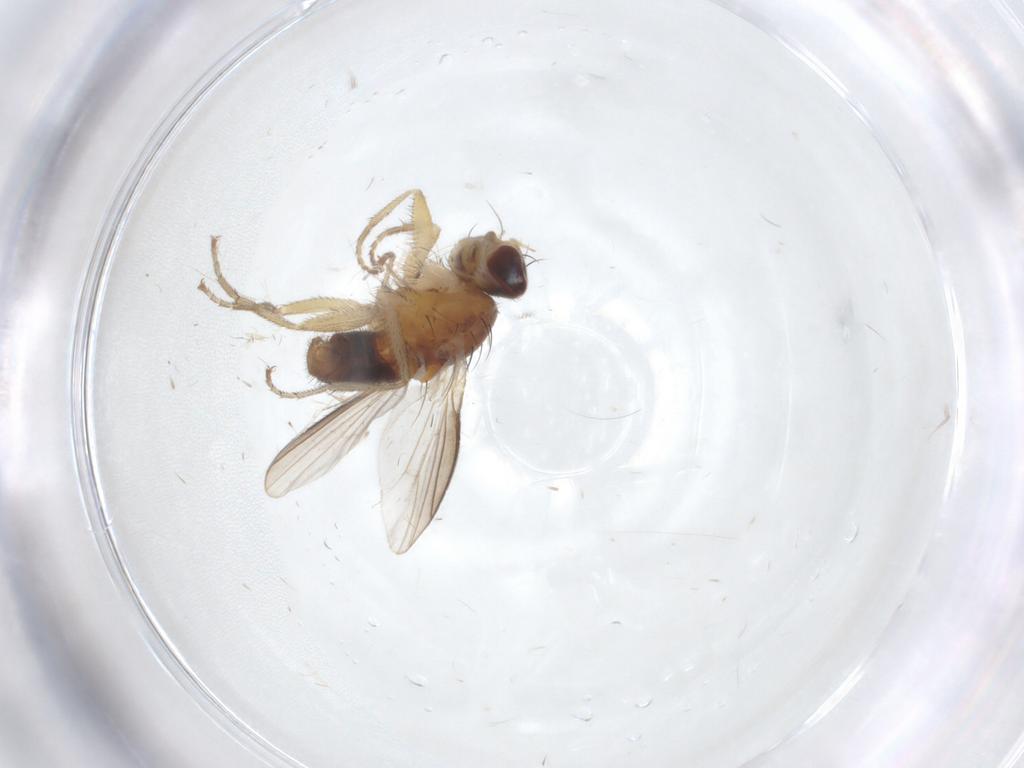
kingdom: Animalia
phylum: Arthropoda
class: Insecta
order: Diptera
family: Heleomyzidae
